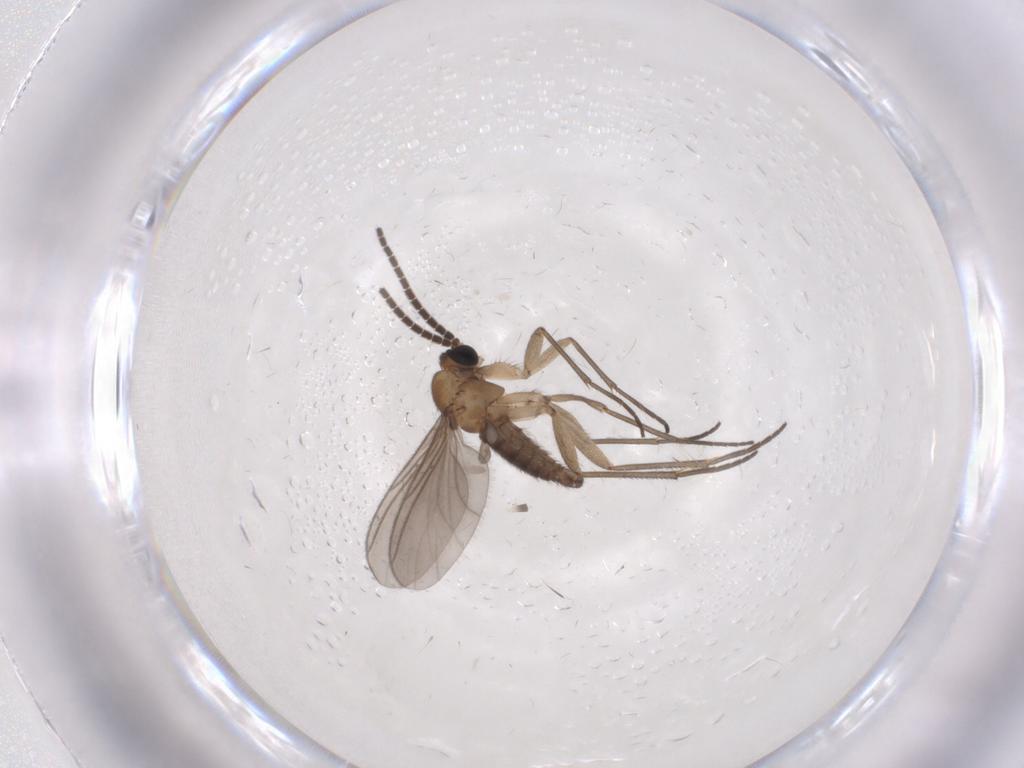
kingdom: Animalia
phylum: Arthropoda
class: Insecta
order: Diptera
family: Sciaridae
